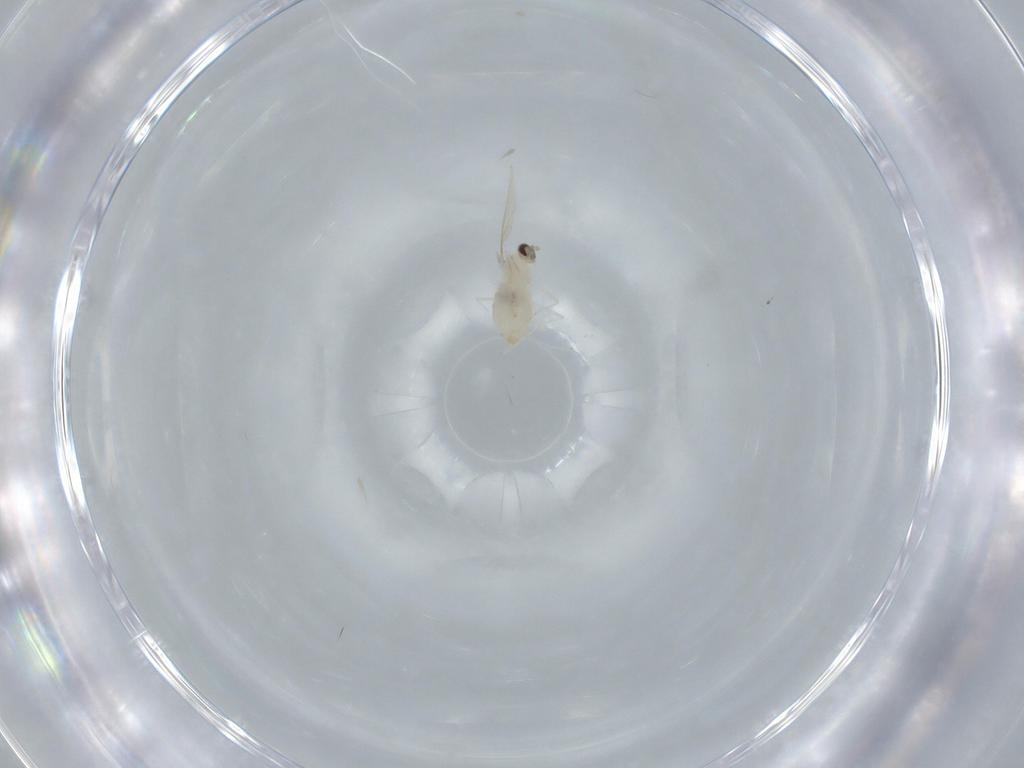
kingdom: Animalia
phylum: Arthropoda
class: Insecta
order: Diptera
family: Cecidomyiidae
